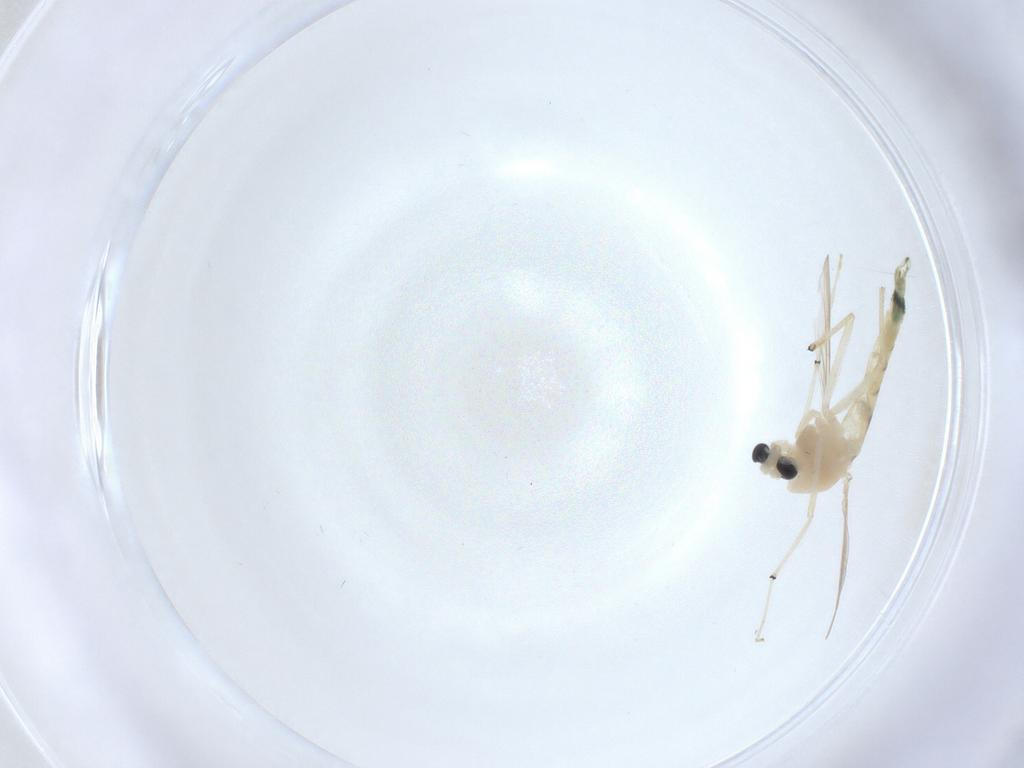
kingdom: Animalia
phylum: Arthropoda
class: Insecta
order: Diptera
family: Chironomidae
